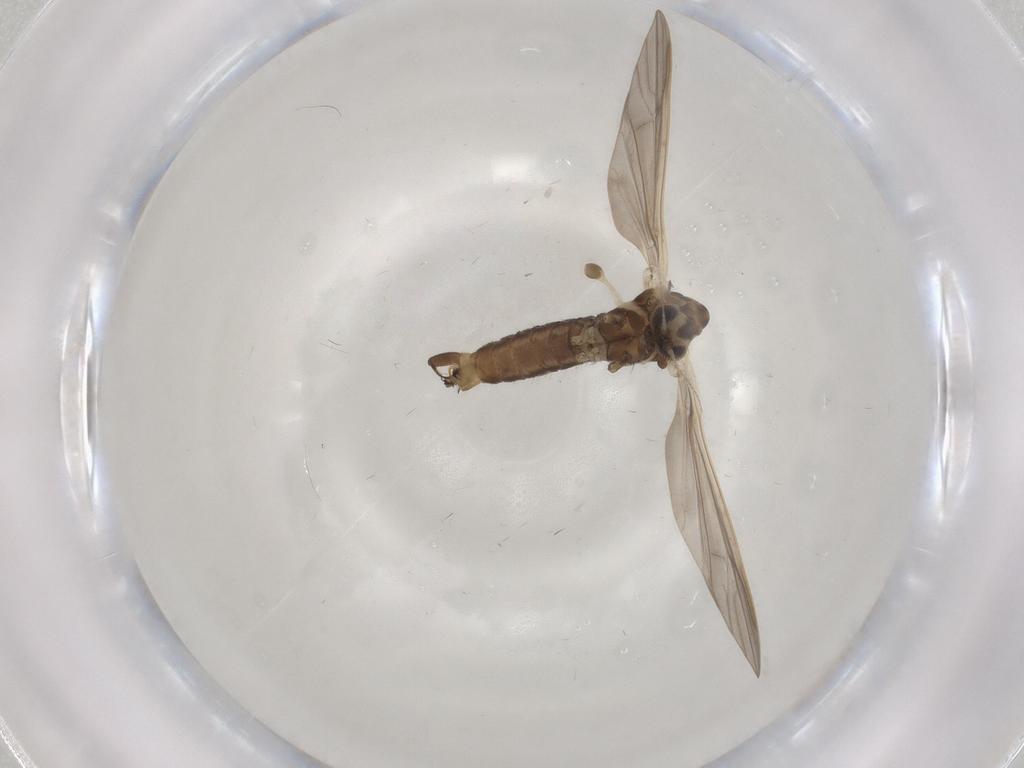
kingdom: Animalia
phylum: Arthropoda
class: Insecta
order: Diptera
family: Limoniidae
